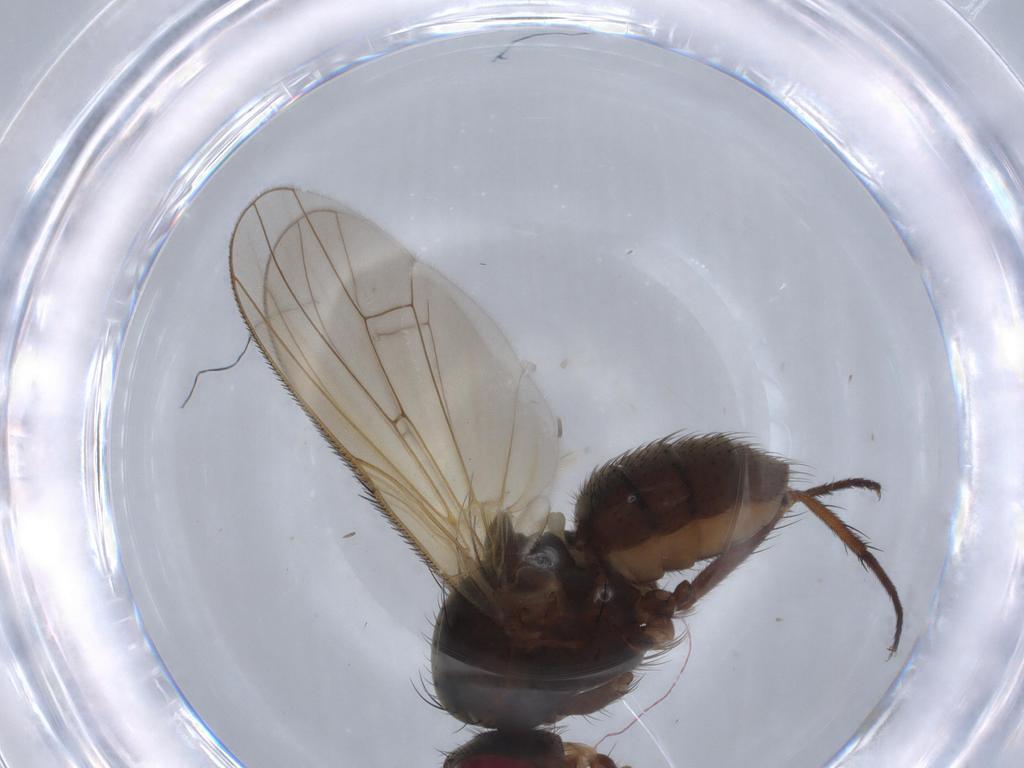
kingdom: Animalia
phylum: Arthropoda
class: Insecta
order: Diptera
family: Anthomyiidae
